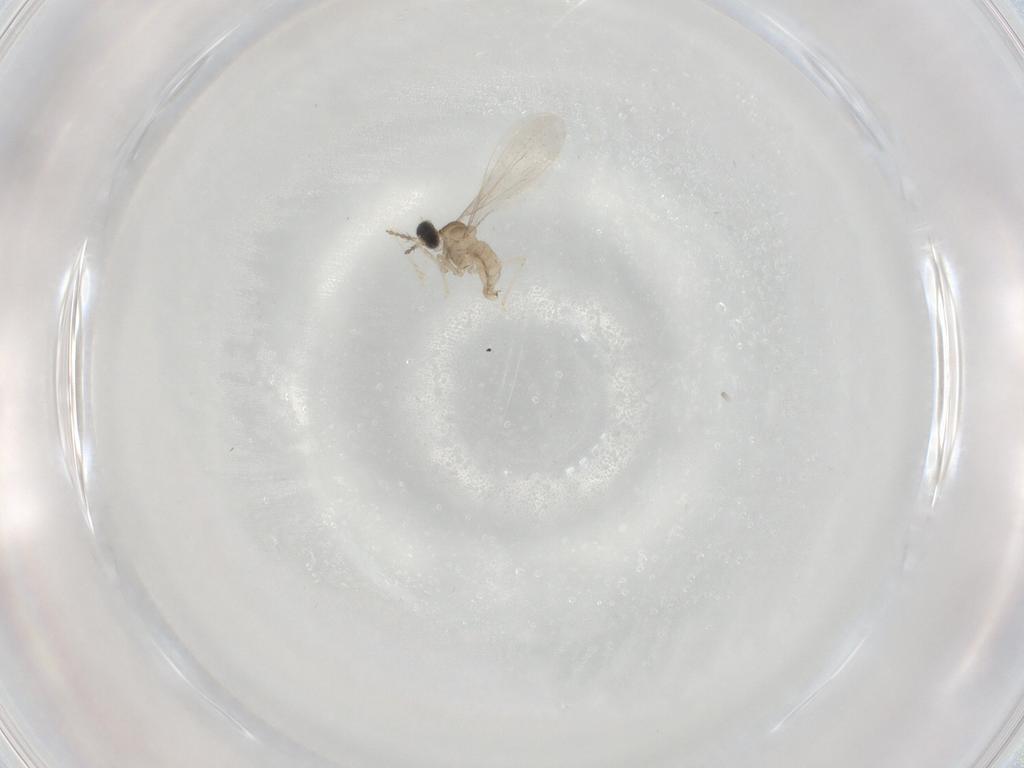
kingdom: Animalia
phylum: Arthropoda
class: Insecta
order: Diptera
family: Cecidomyiidae
